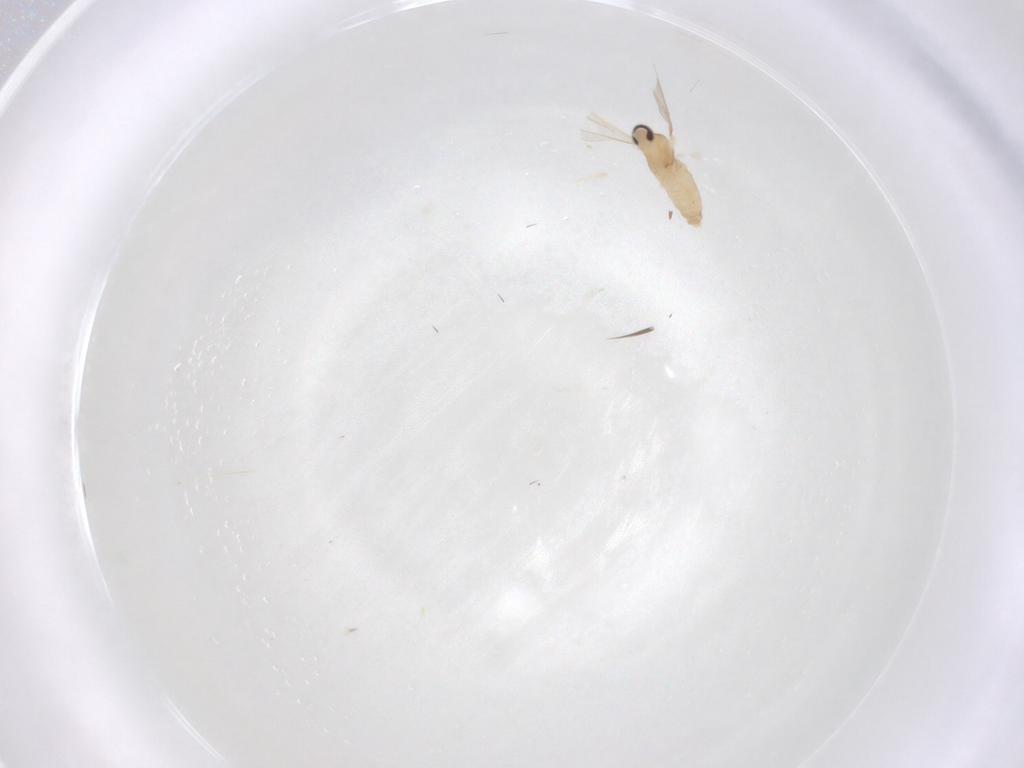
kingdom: Animalia
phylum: Arthropoda
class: Insecta
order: Diptera
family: Cecidomyiidae
